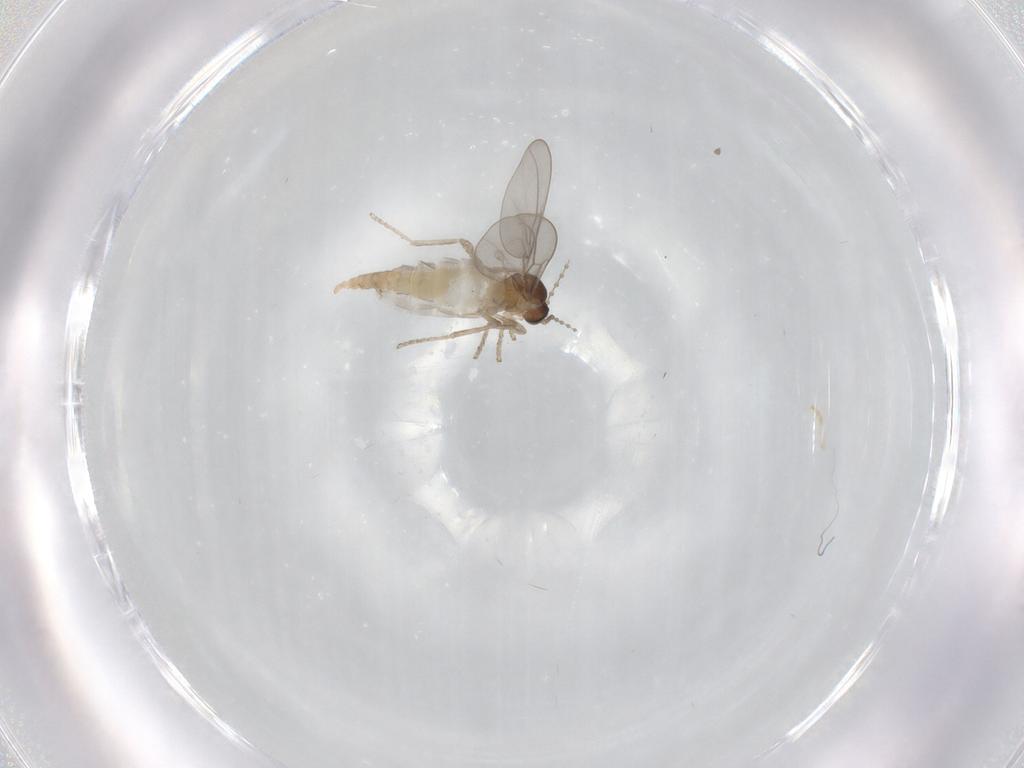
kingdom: Animalia
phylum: Arthropoda
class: Insecta
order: Diptera
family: Cecidomyiidae
